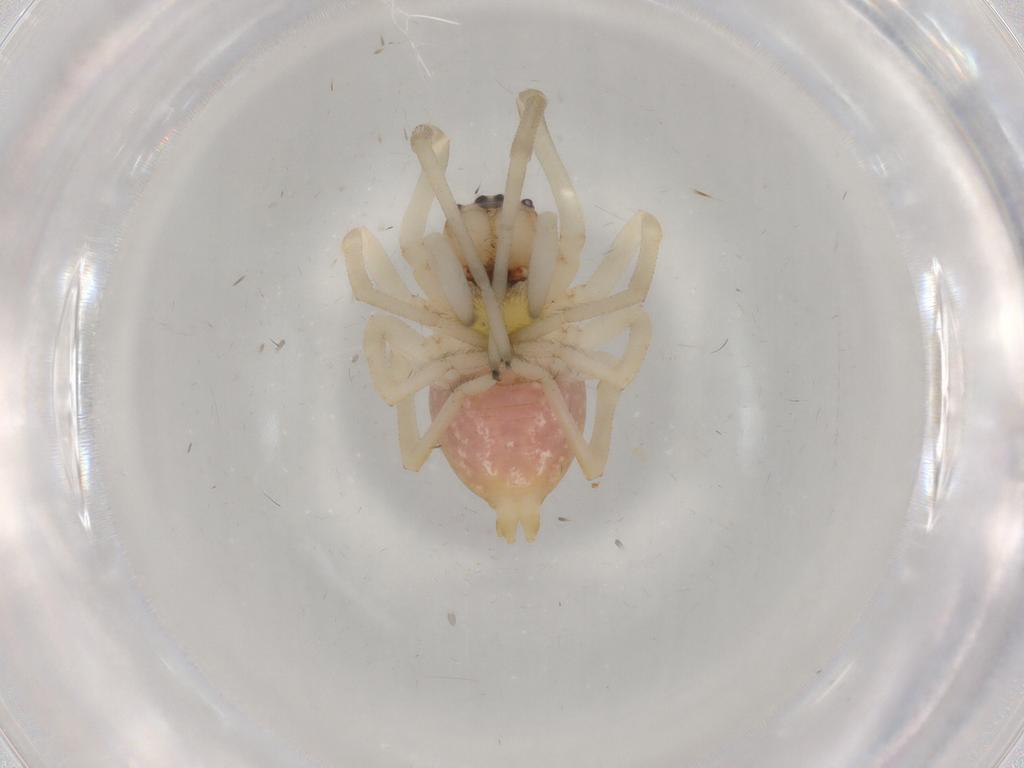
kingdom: Animalia
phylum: Arthropoda
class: Arachnida
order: Araneae
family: Cheiracanthiidae
